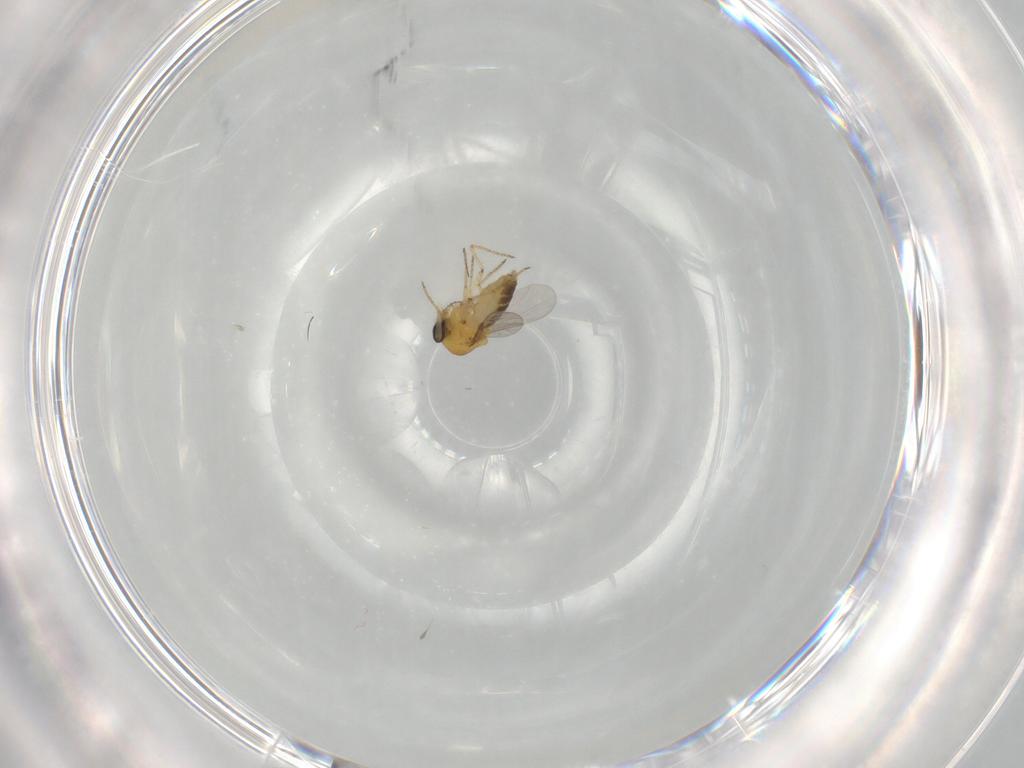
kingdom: Animalia
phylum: Arthropoda
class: Insecta
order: Diptera
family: Ceratopogonidae
